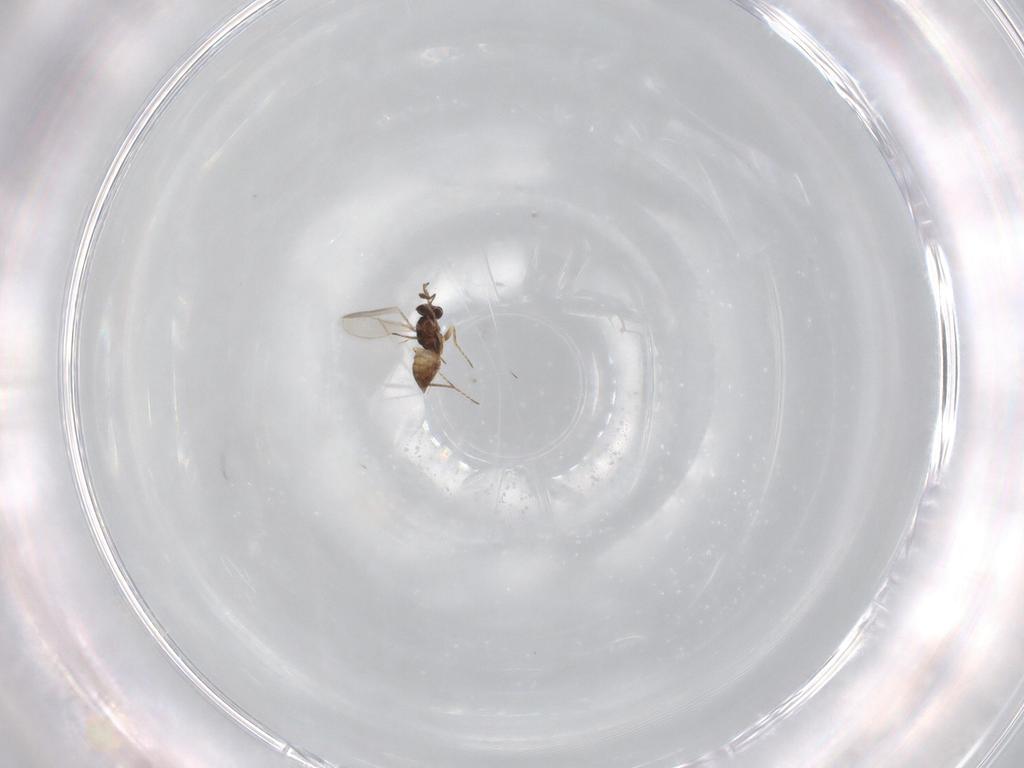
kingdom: Animalia
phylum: Arthropoda
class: Insecta
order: Hymenoptera
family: Mymaridae
